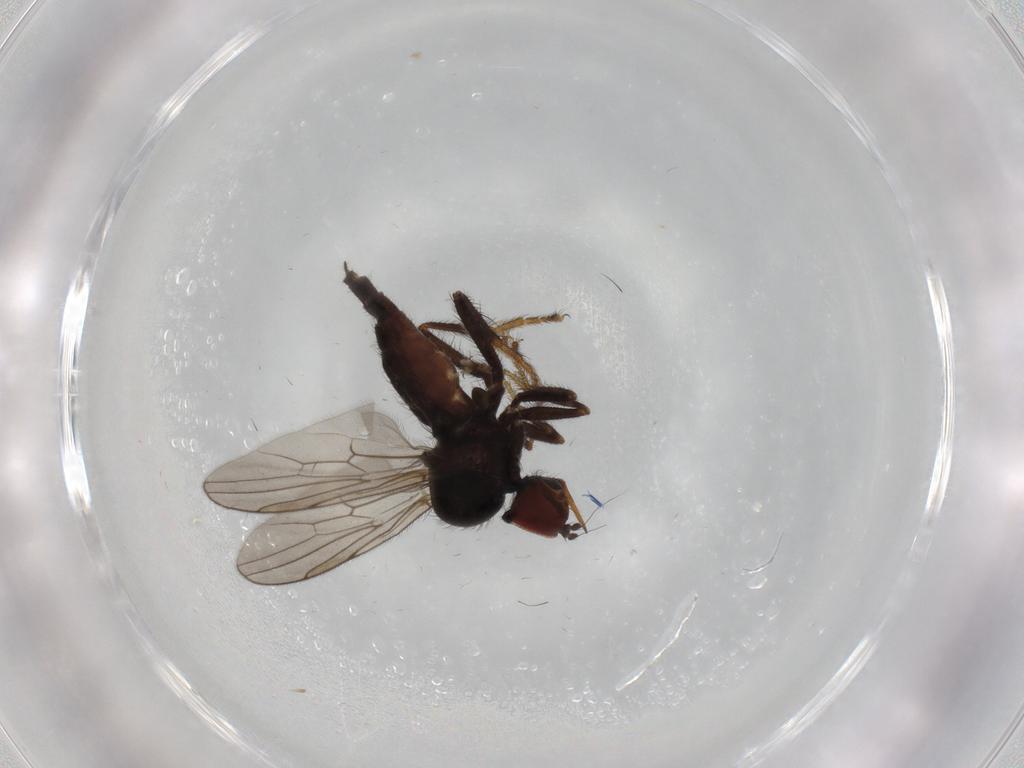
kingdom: Animalia
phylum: Arthropoda
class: Insecta
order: Diptera
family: Hybotidae
